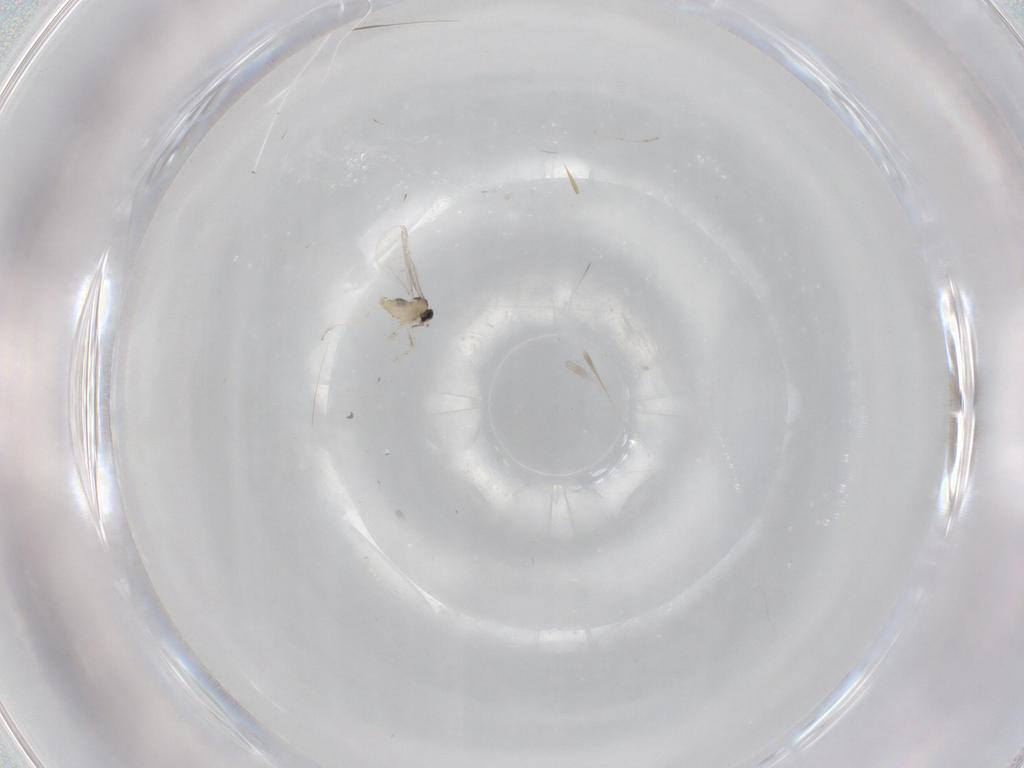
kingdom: Animalia
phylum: Arthropoda
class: Insecta
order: Diptera
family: Cecidomyiidae
